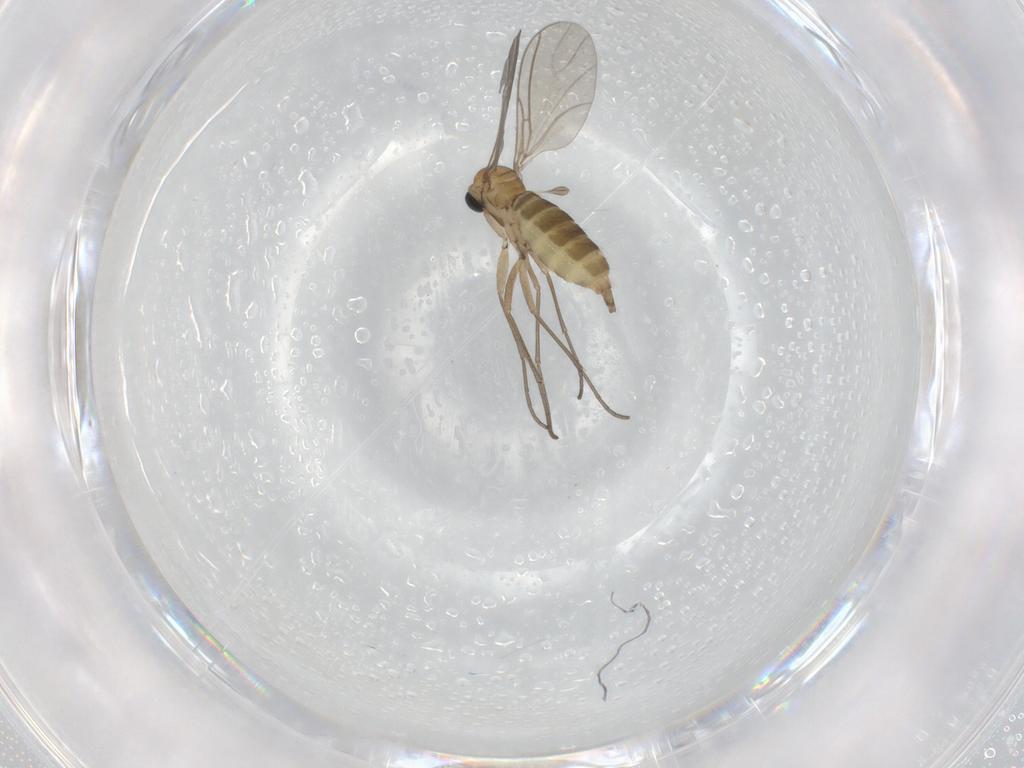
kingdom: Animalia
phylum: Arthropoda
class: Insecta
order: Diptera
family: Sciaridae
